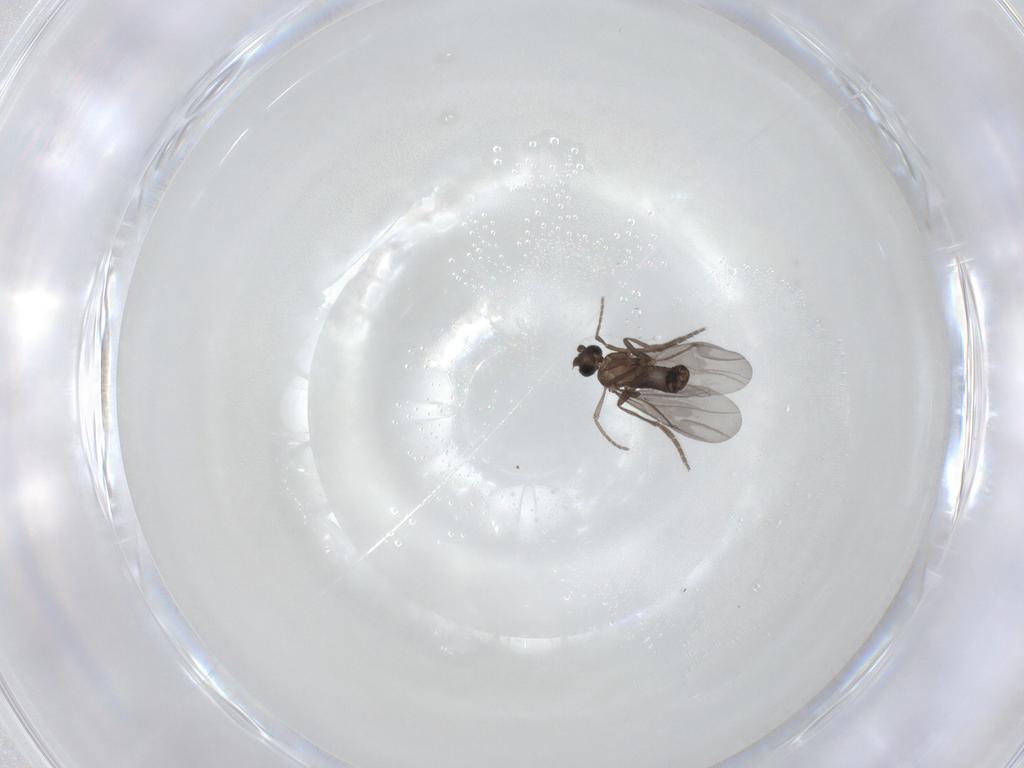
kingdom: Animalia
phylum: Arthropoda
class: Insecta
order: Diptera
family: Phoridae
